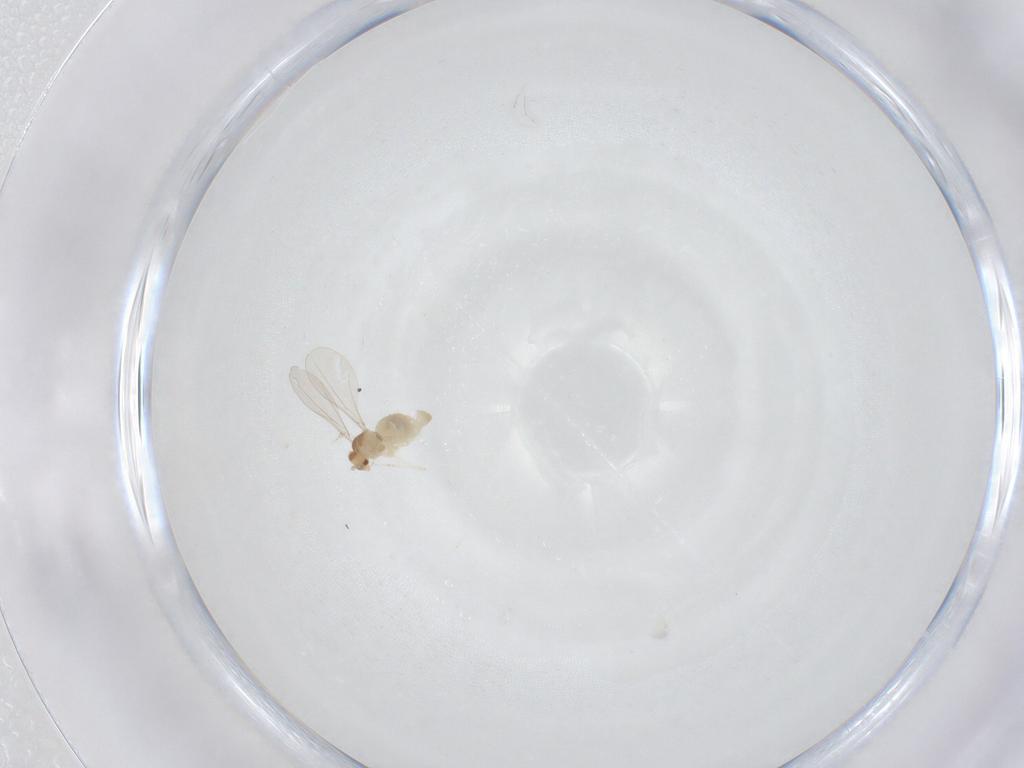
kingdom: Animalia
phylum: Arthropoda
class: Insecta
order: Diptera
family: Cecidomyiidae
